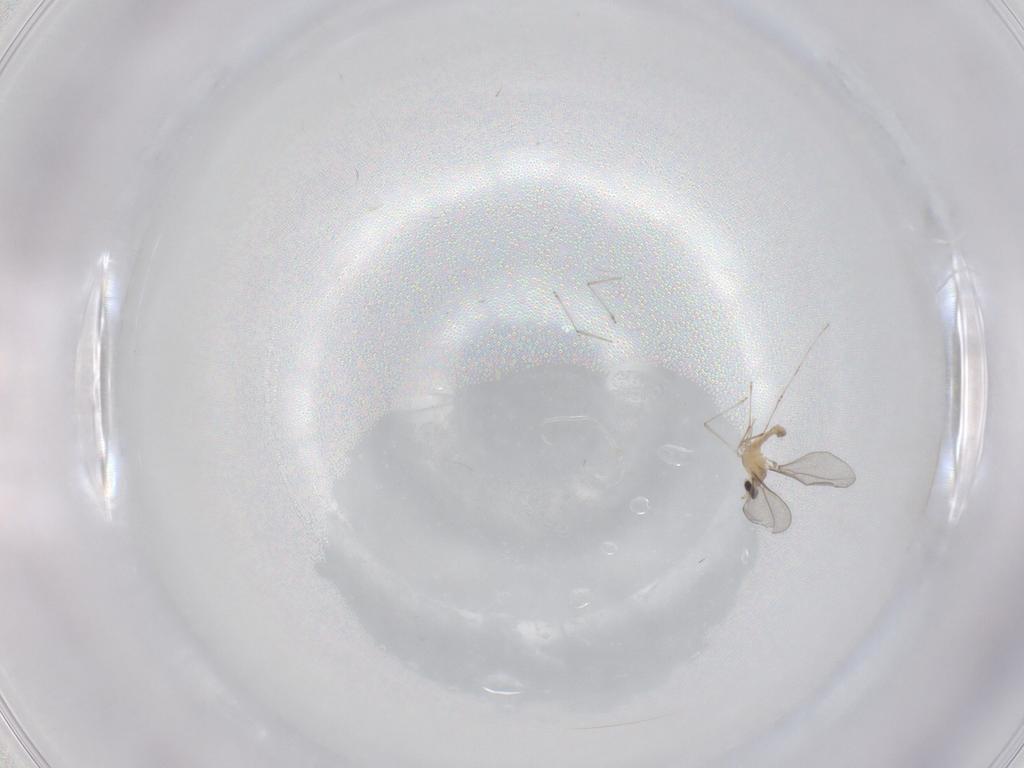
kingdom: Animalia
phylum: Arthropoda
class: Insecta
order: Diptera
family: Cecidomyiidae
